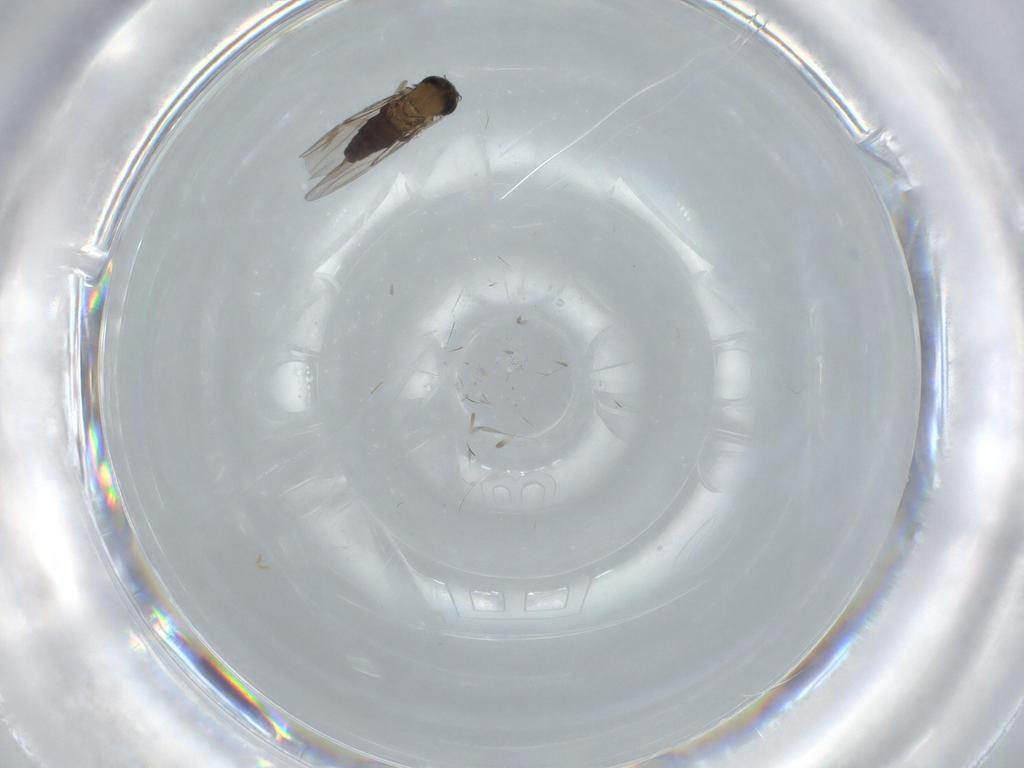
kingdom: Animalia
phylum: Arthropoda
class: Insecta
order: Diptera
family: Phoridae
